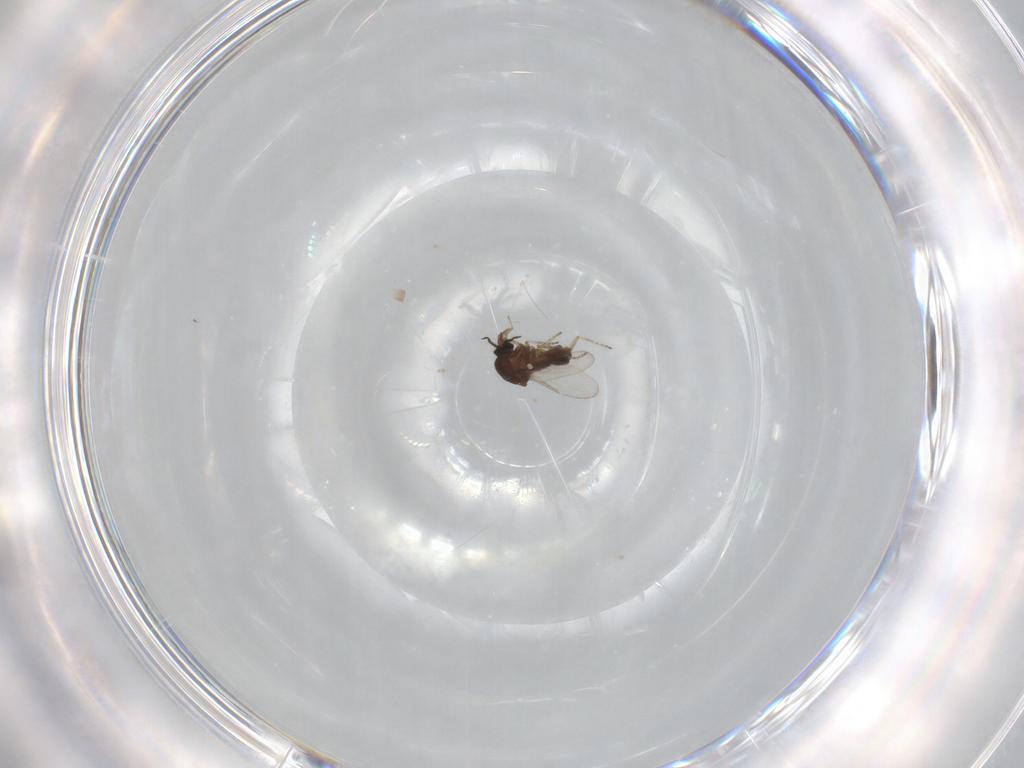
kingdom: Animalia
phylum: Arthropoda
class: Insecta
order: Diptera
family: Ceratopogonidae
